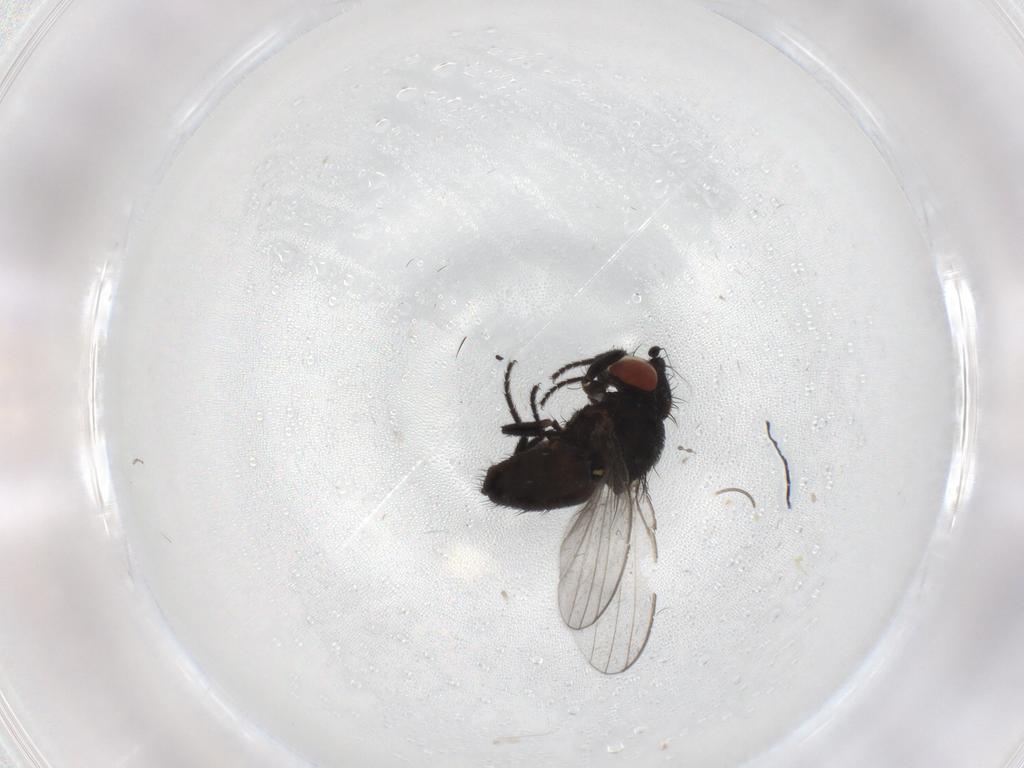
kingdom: Animalia
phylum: Arthropoda
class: Insecta
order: Diptera
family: Milichiidae
